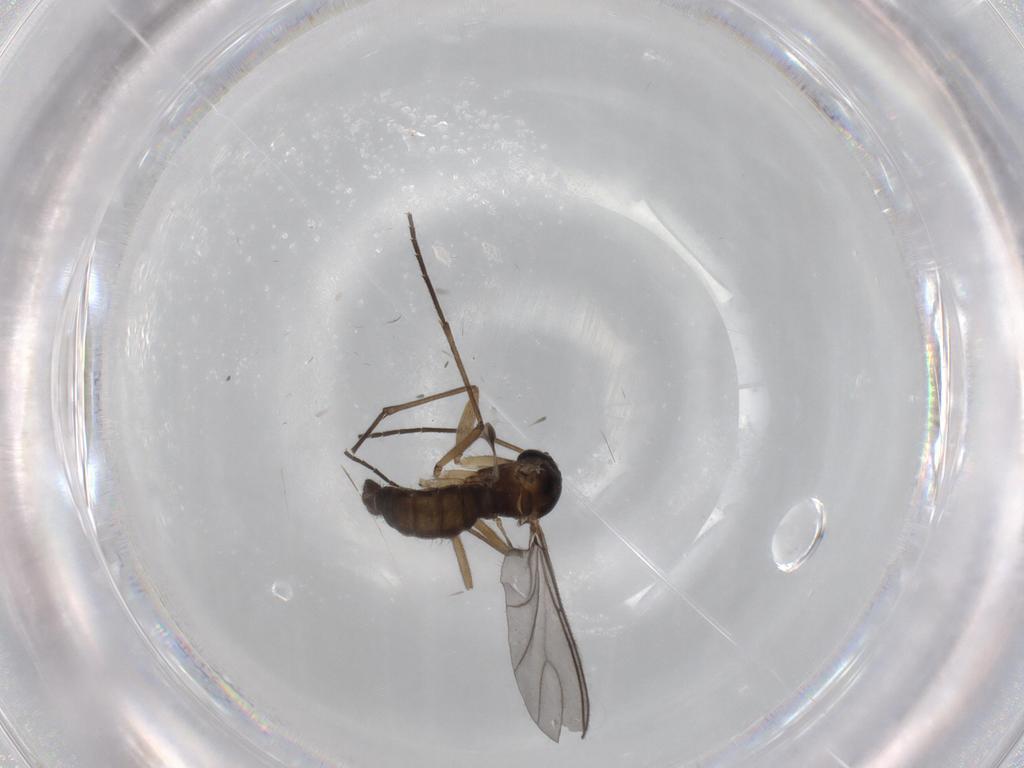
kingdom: Animalia
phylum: Arthropoda
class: Insecta
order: Diptera
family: Sciaridae
